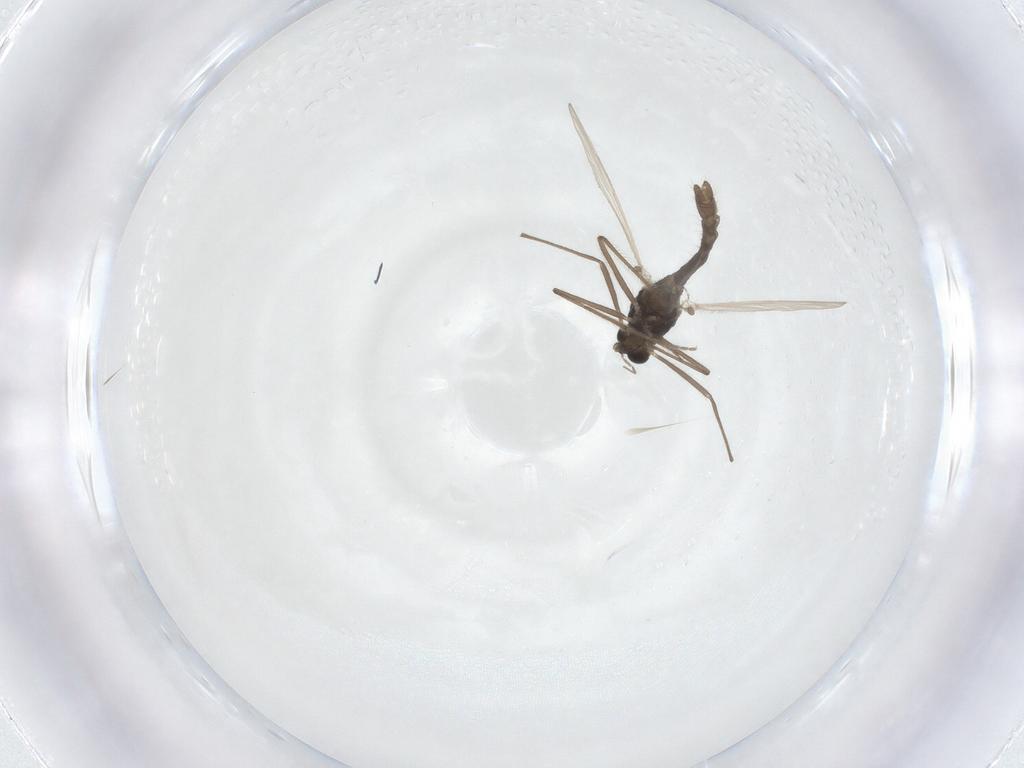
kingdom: Animalia
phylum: Arthropoda
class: Insecta
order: Diptera
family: Chironomidae
